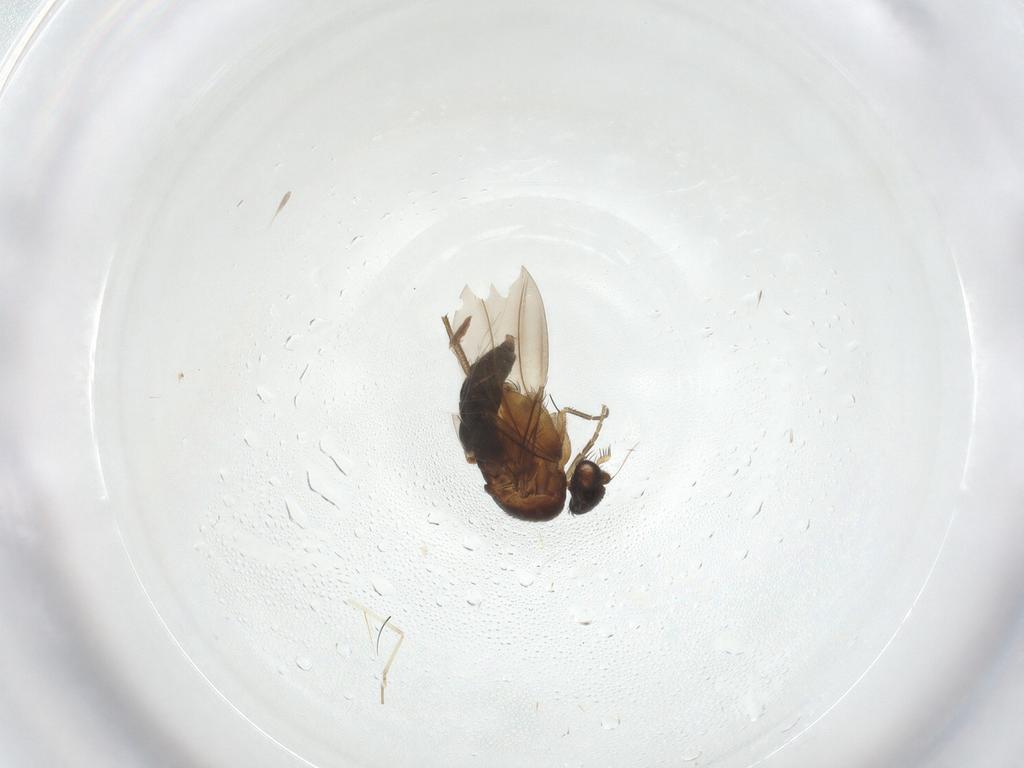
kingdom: Animalia
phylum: Arthropoda
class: Insecta
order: Diptera
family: Phoridae
